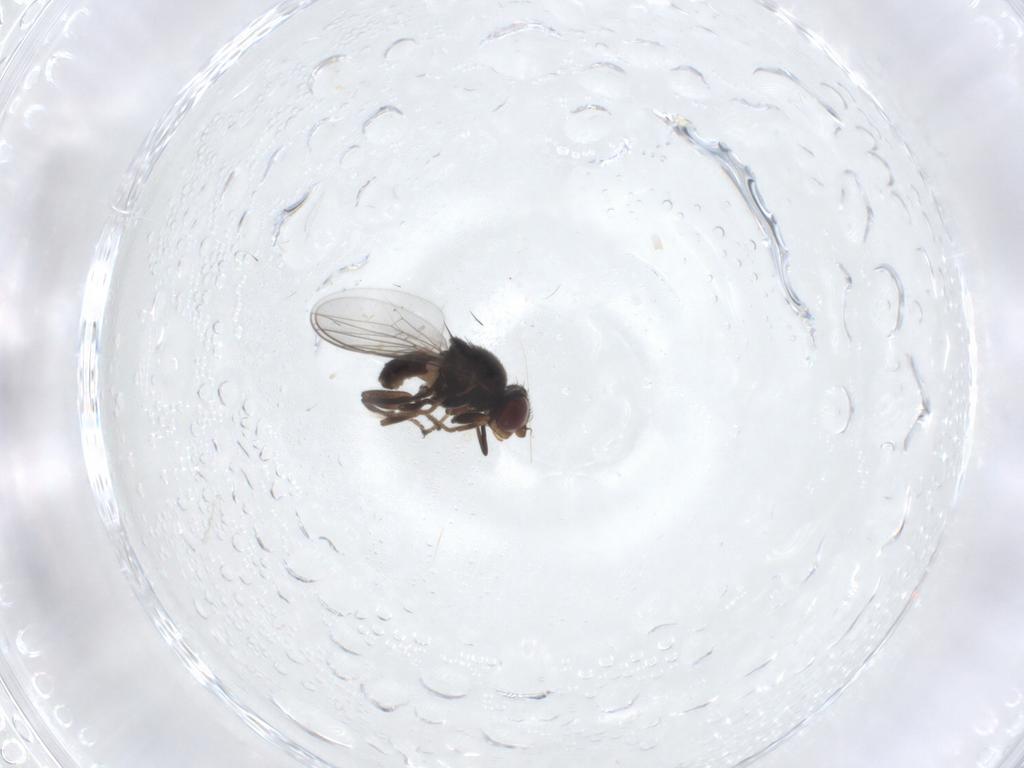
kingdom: Animalia
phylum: Arthropoda
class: Insecta
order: Diptera
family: Chloropidae
